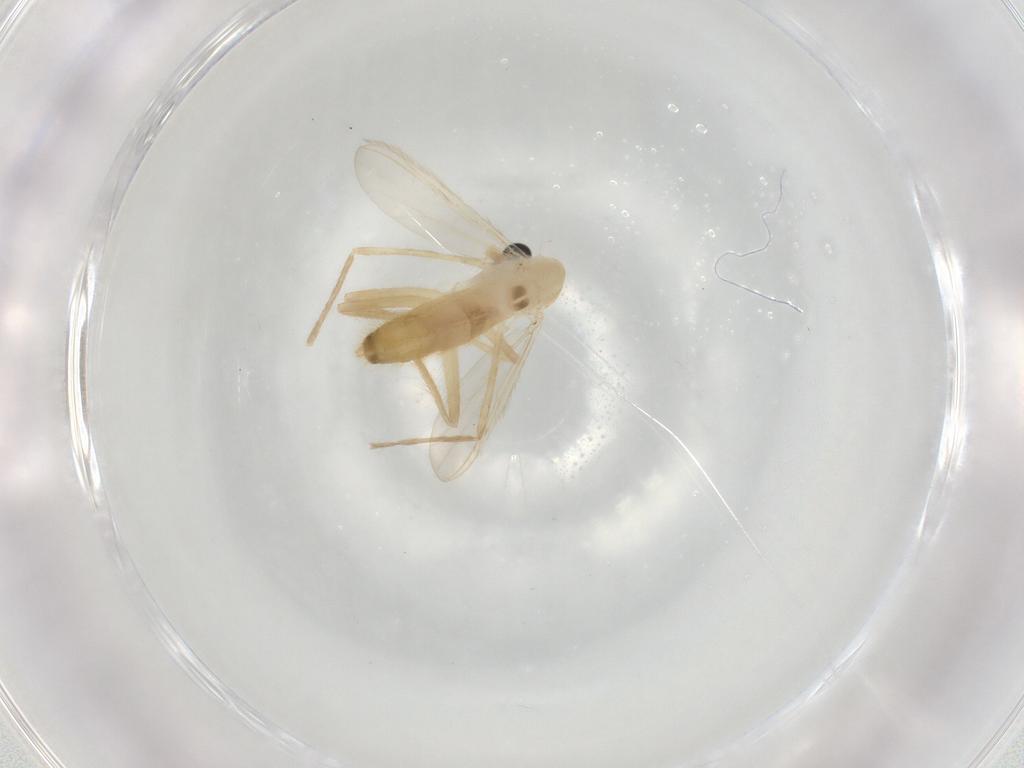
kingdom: Animalia
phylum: Arthropoda
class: Insecta
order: Diptera
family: Chironomidae
